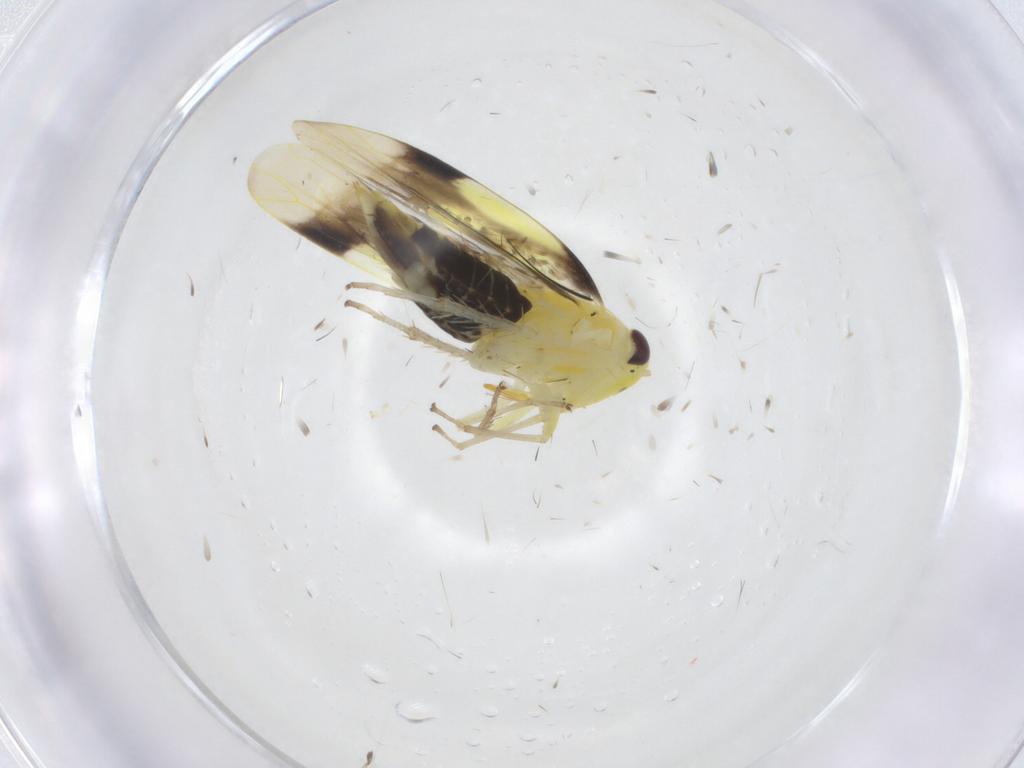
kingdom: Animalia
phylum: Arthropoda
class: Insecta
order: Hemiptera
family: Cicadellidae
